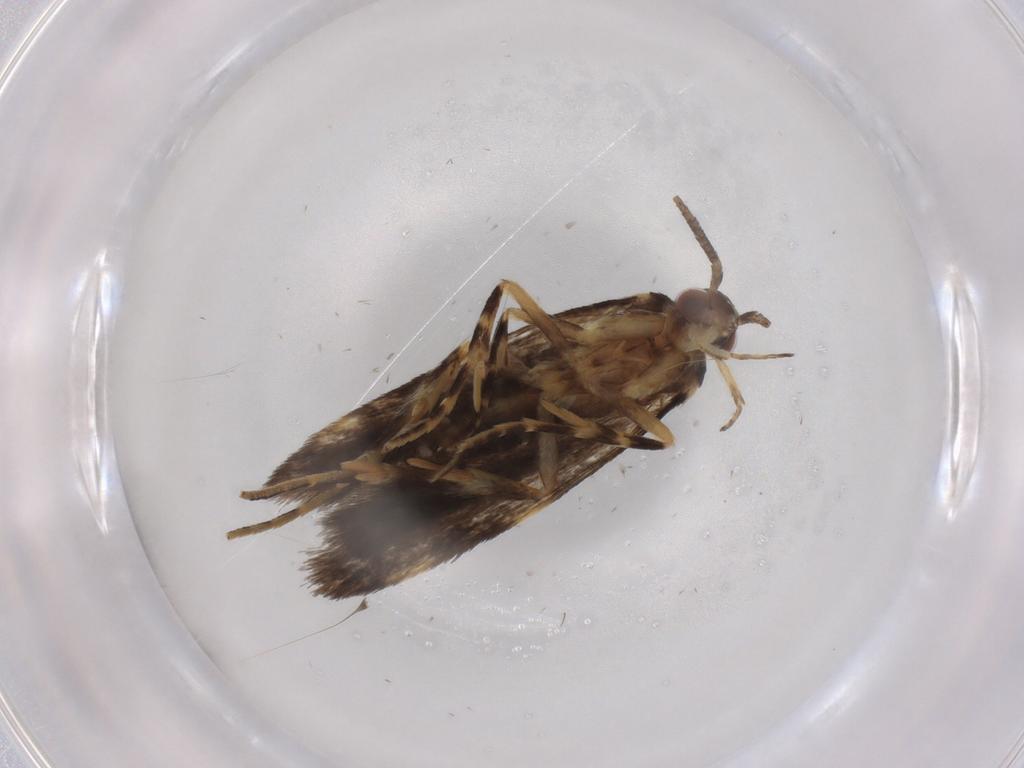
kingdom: Animalia
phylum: Arthropoda
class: Insecta
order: Lepidoptera
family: Autostichidae
